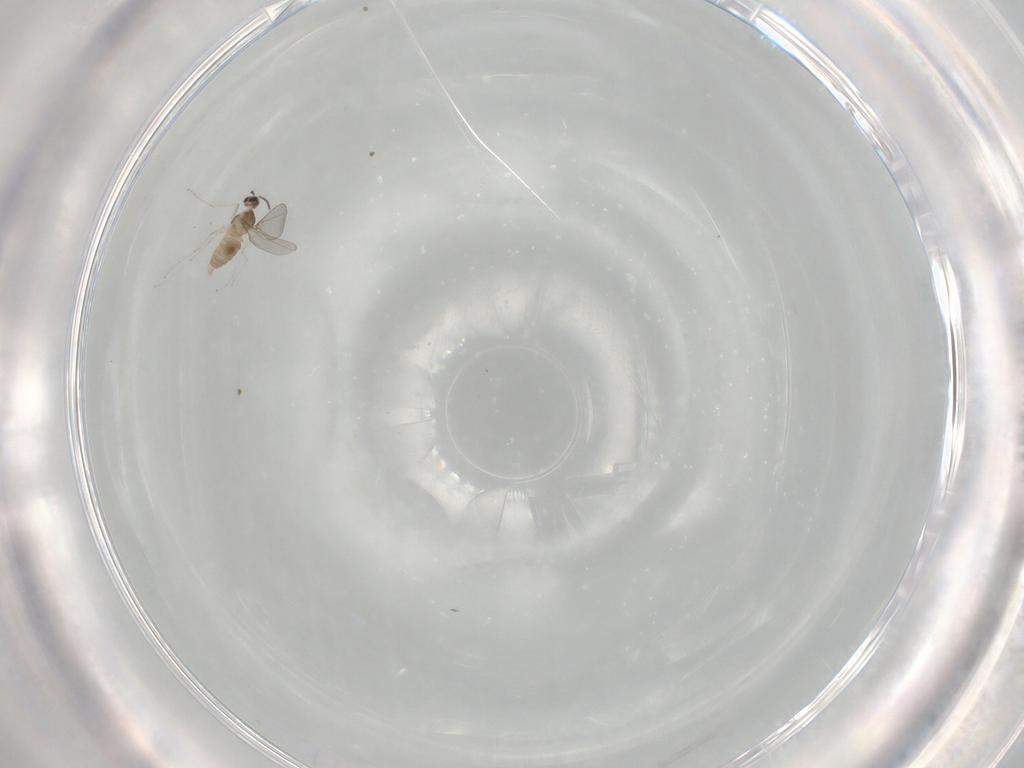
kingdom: Animalia
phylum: Arthropoda
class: Insecta
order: Diptera
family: Cecidomyiidae
